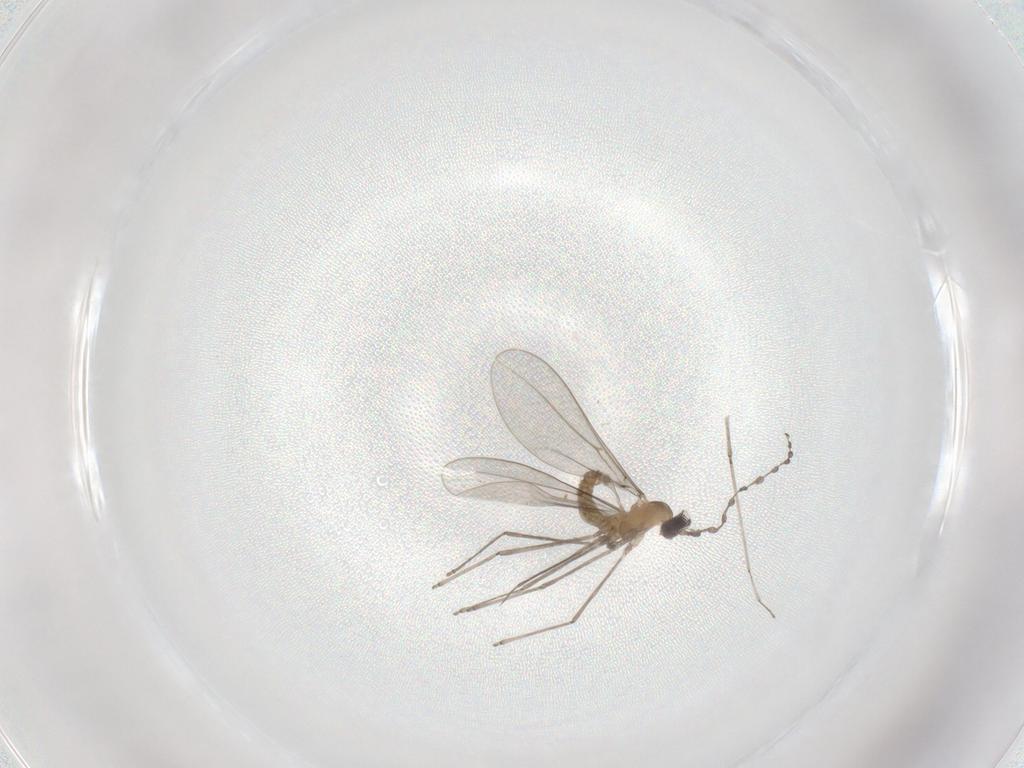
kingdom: Animalia
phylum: Arthropoda
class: Insecta
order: Diptera
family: Cecidomyiidae
